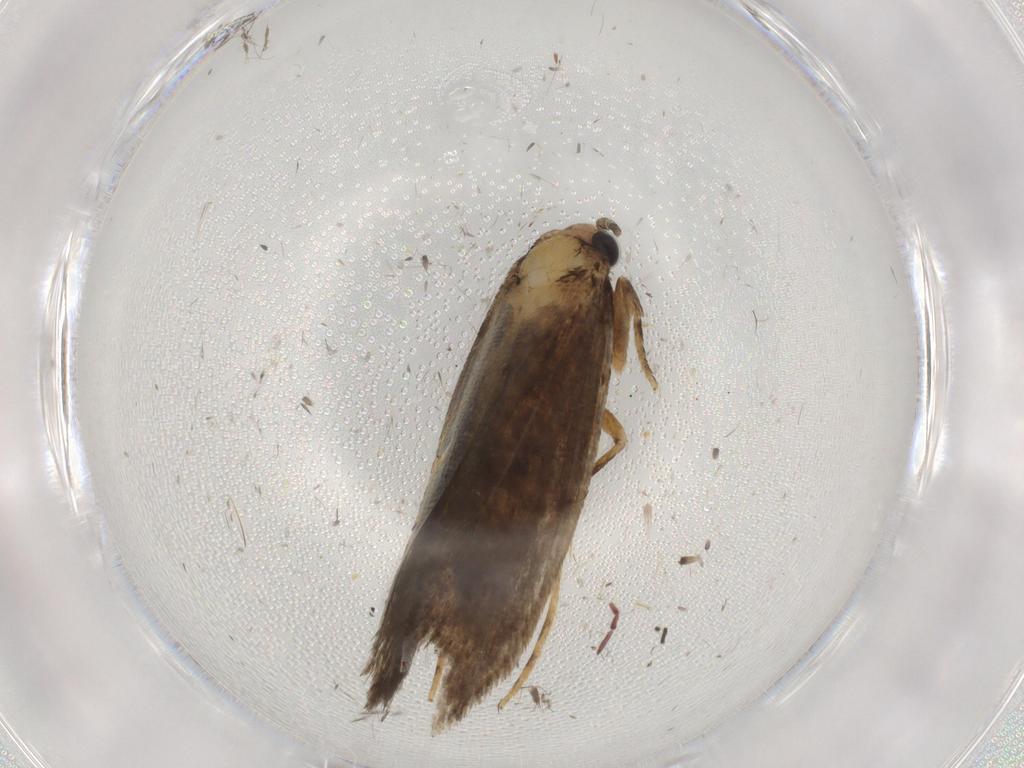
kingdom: Animalia
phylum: Arthropoda
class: Insecta
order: Lepidoptera
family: Tineidae
